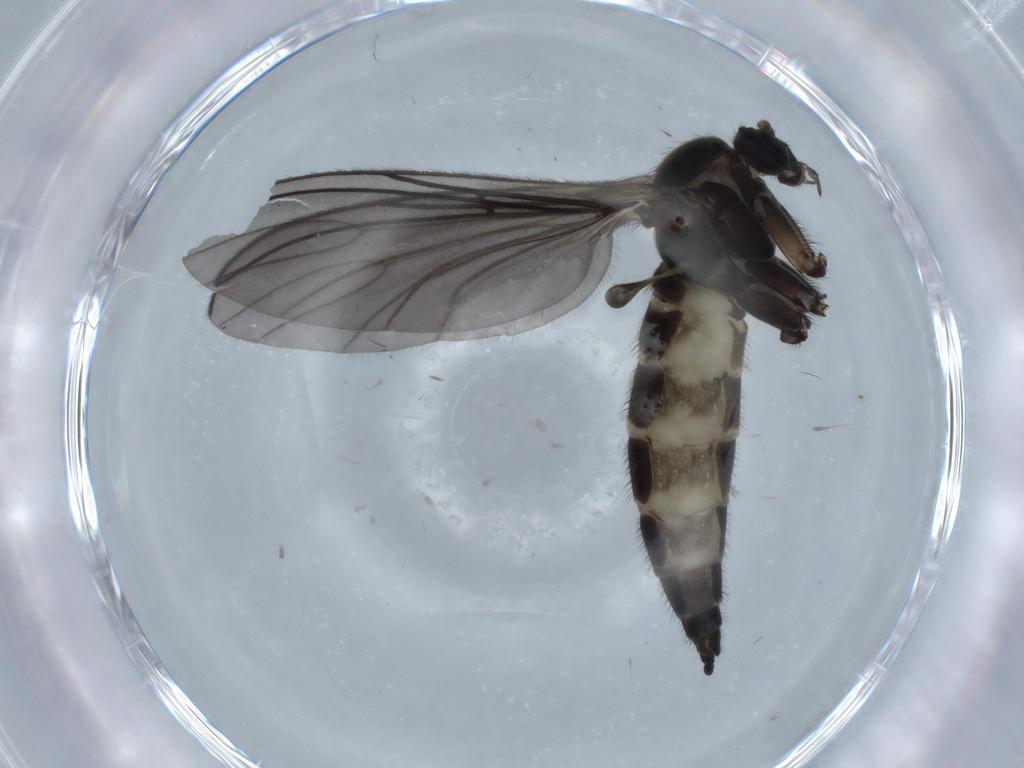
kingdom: Animalia
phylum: Arthropoda
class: Insecta
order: Diptera
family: Sciaridae
